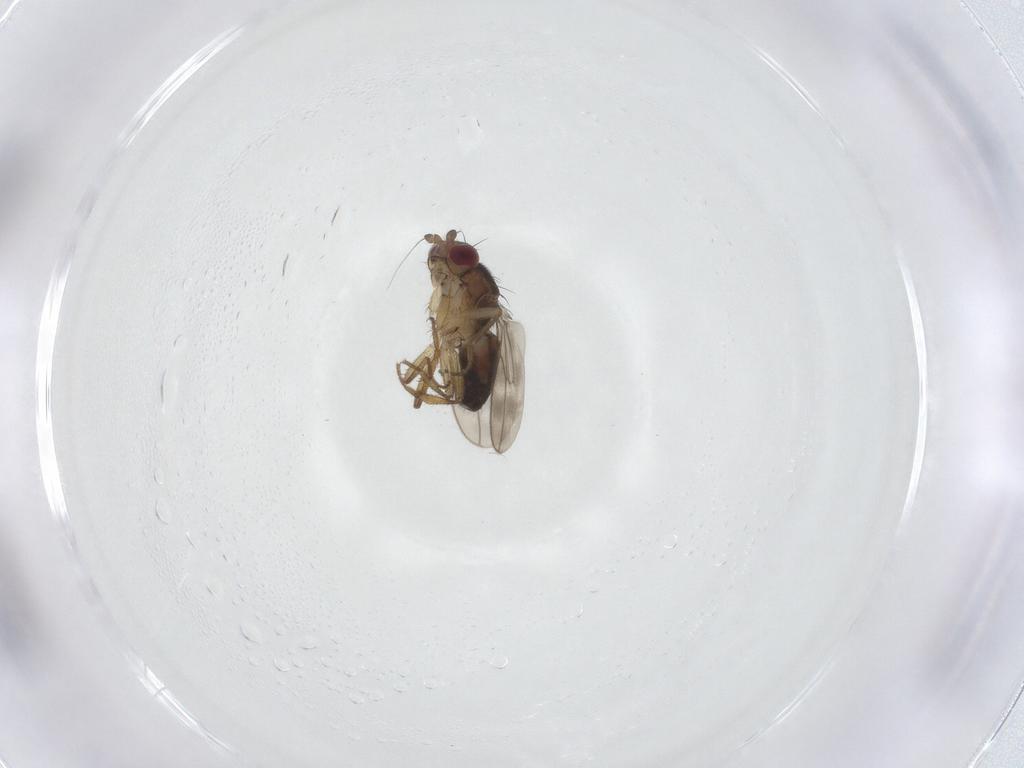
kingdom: Animalia
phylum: Arthropoda
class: Insecta
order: Diptera
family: Sphaeroceridae
